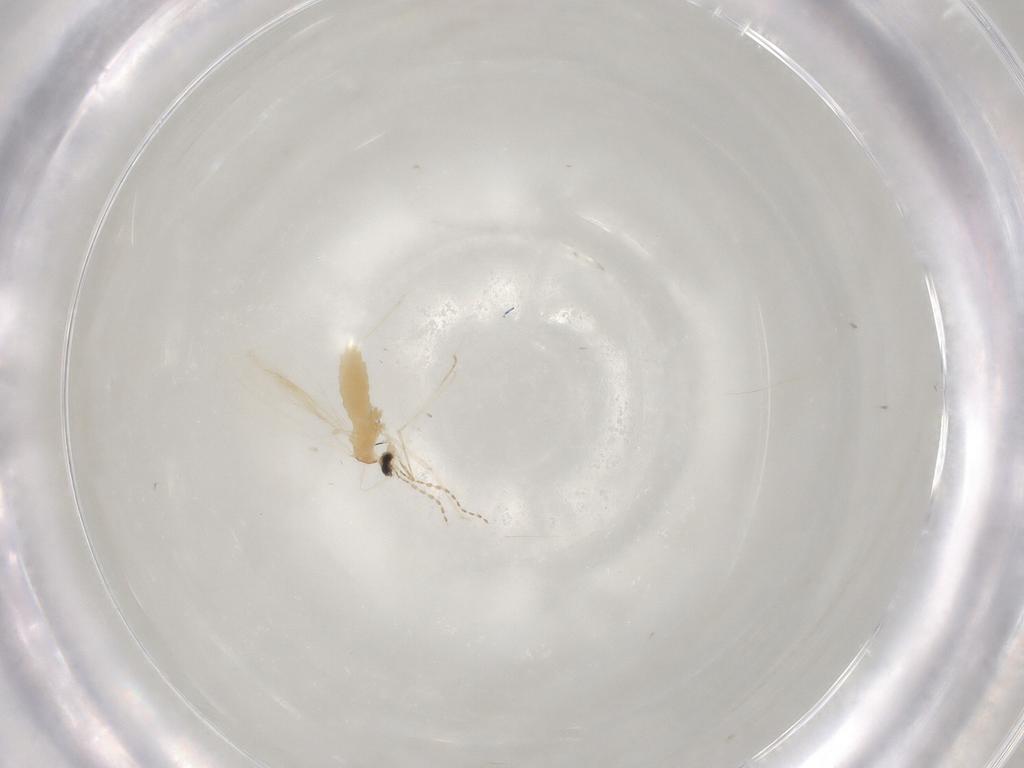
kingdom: Animalia
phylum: Arthropoda
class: Insecta
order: Diptera
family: Cecidomyiidae
